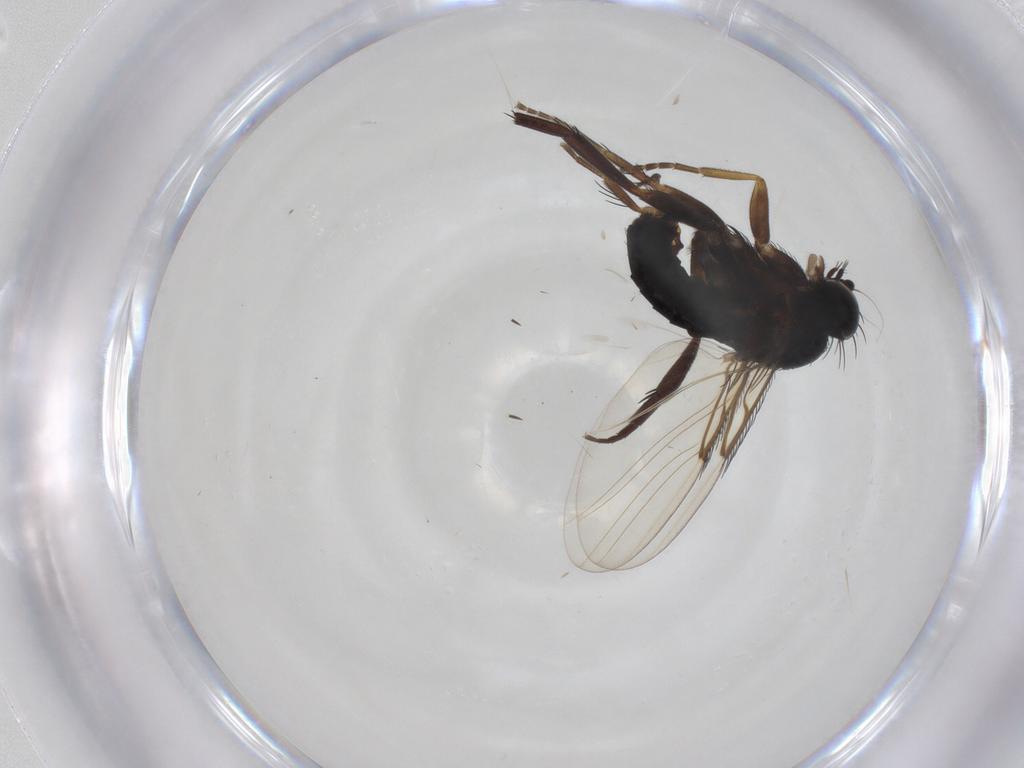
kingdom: Animalia
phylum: Arthropoda
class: Insecta
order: Diptera
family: Phoridae
